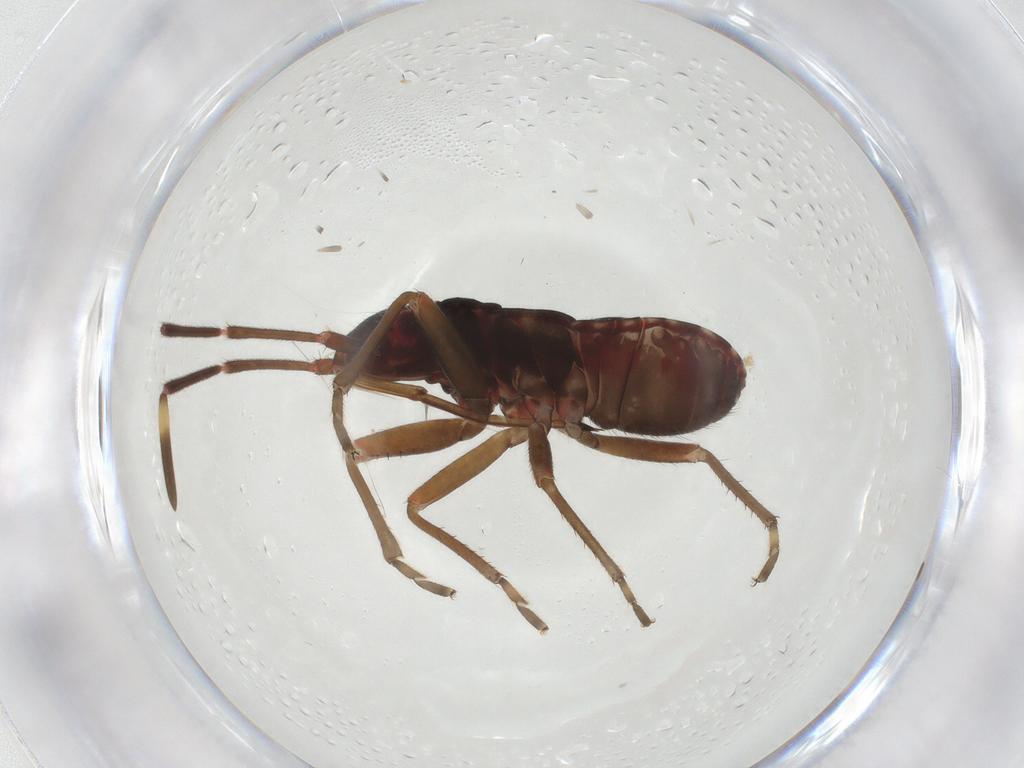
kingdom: Animalia
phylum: Arthropoda
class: Insecta
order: Hemiptera
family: Rhyparochromidae
